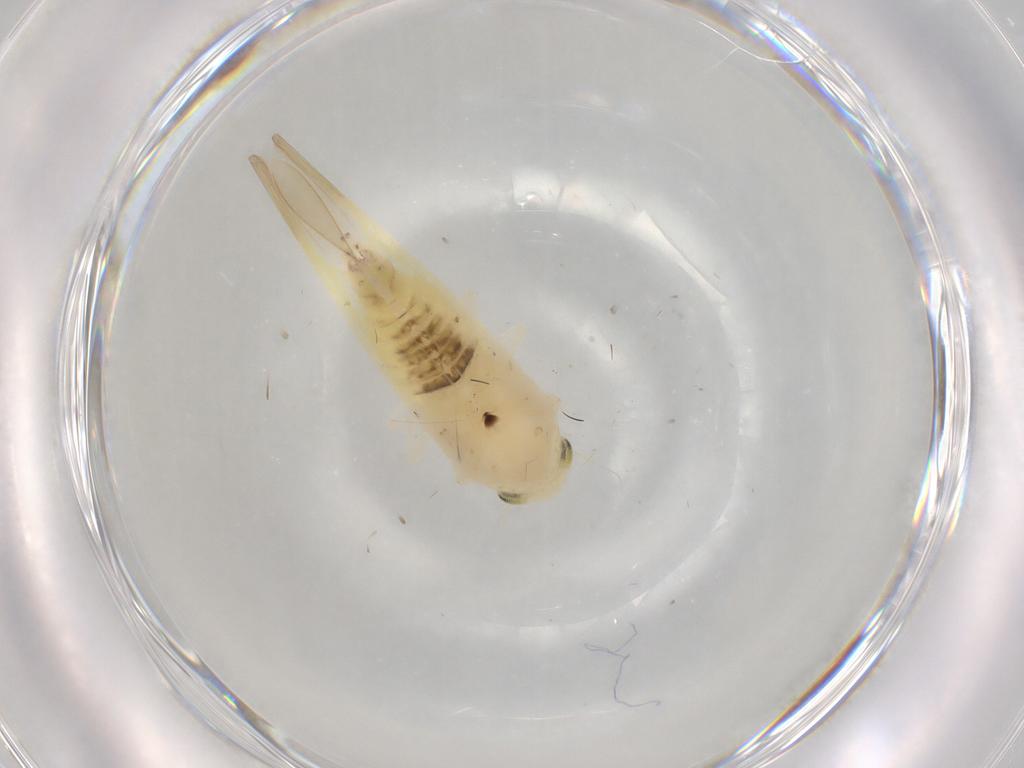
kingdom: Animalia
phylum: Arthropoda
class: Insecta
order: Hemiptera
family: Cicadellidae
